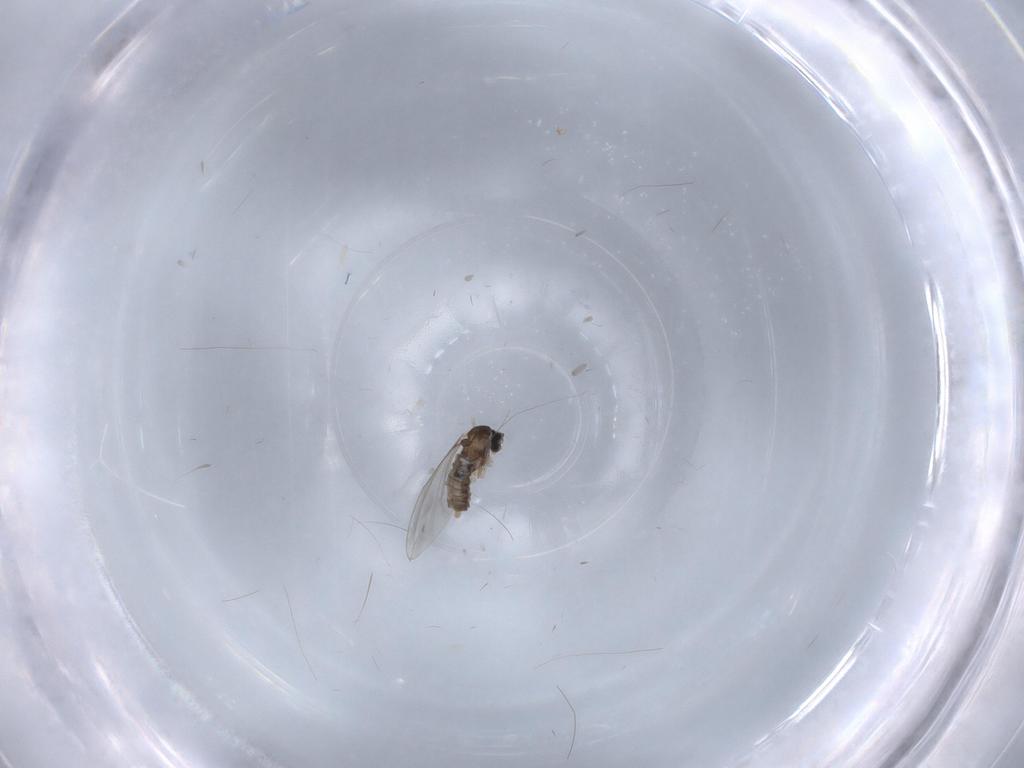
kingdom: Animalia
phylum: Arthropoda
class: Insecta
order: Diptera
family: Cecidomyiidae
